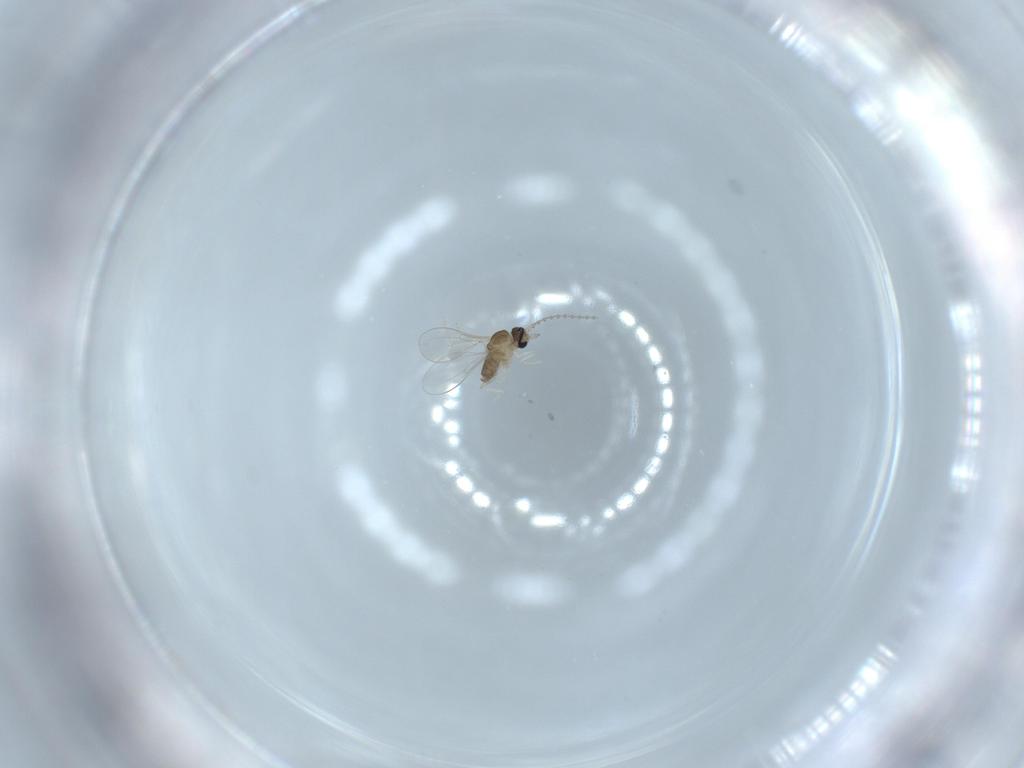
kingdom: Animalia
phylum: Arthropoda
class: Insecta
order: Diptera
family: Cecidomyiidae
